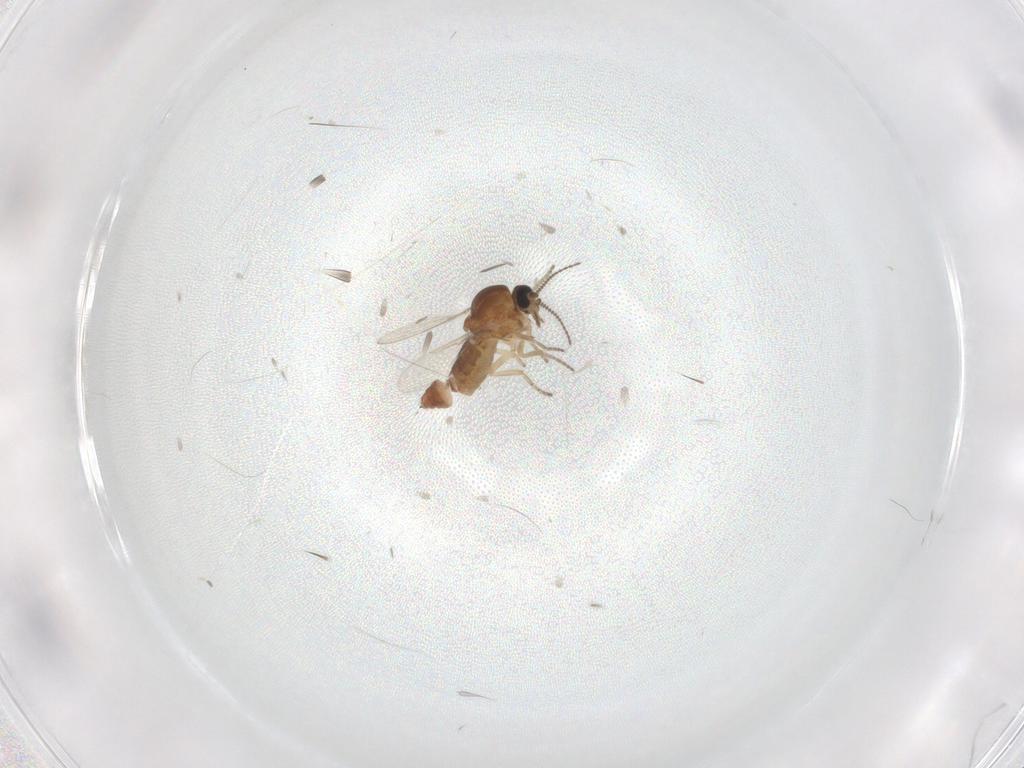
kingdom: Animalia
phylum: Arthropoda
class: Insecta
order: Diptera
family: Ceratopogonidae
